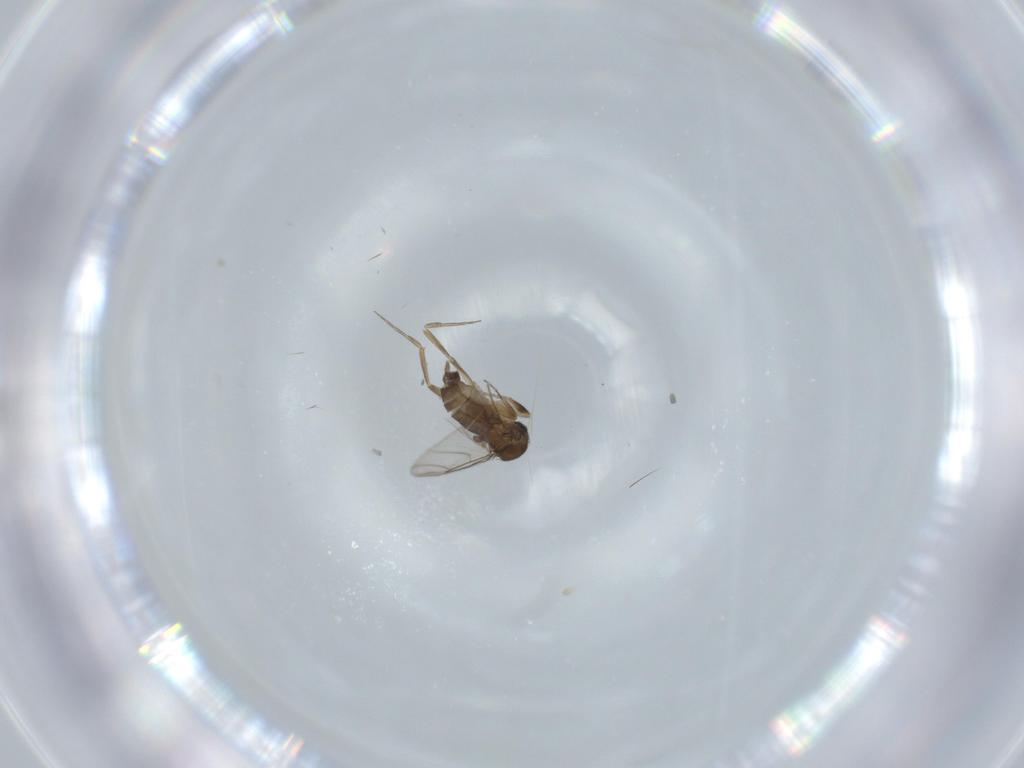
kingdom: Animalia
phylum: Arthropoda
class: Insecta
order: Diptera
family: Phoridae
